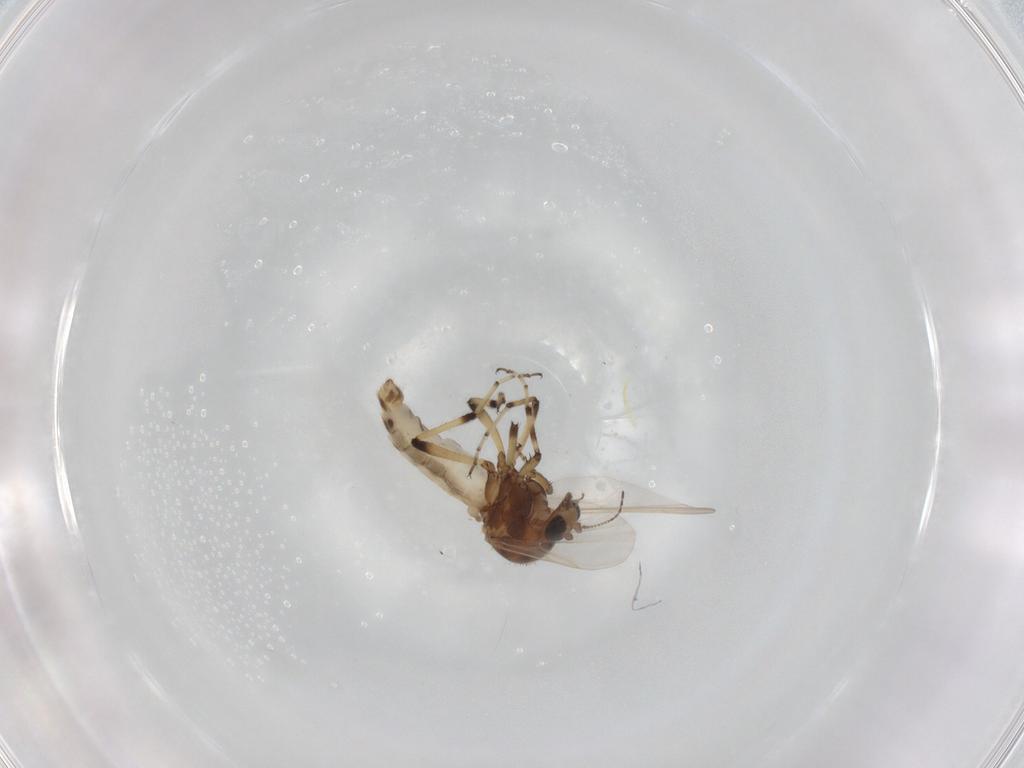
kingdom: Animalia
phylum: Arthropoda
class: Insecta
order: Diptera
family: Ceratopogonidae
